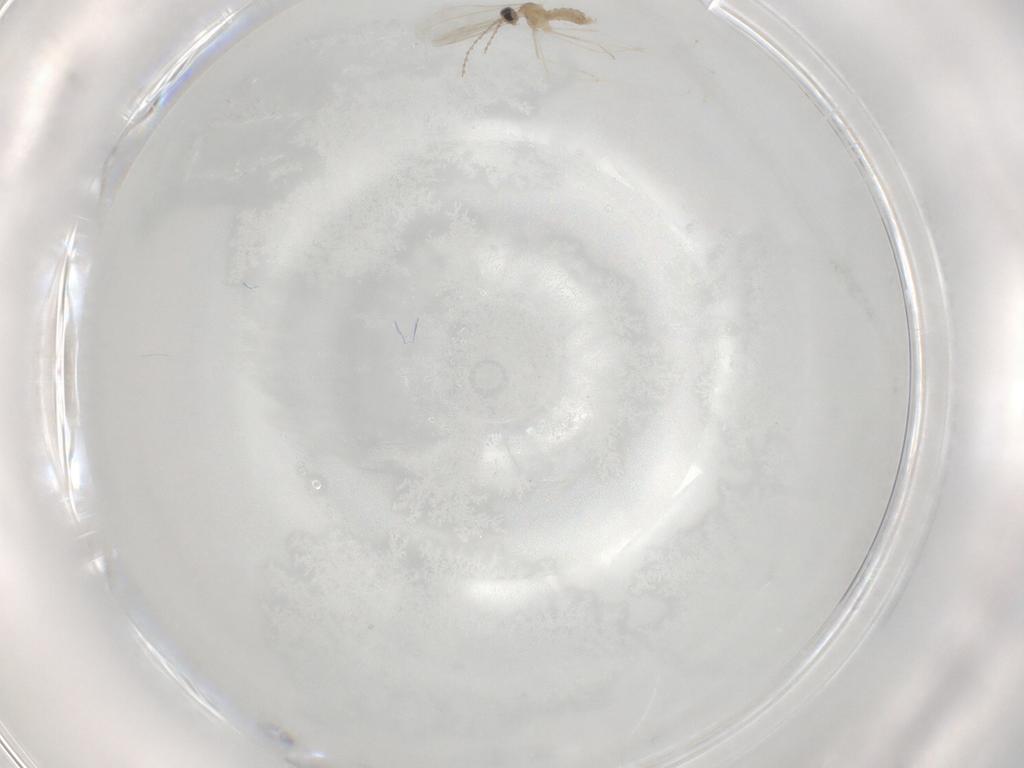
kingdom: Animalia
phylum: Arthropoda
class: Insecta
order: Diptera
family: Cecidomyiidae
